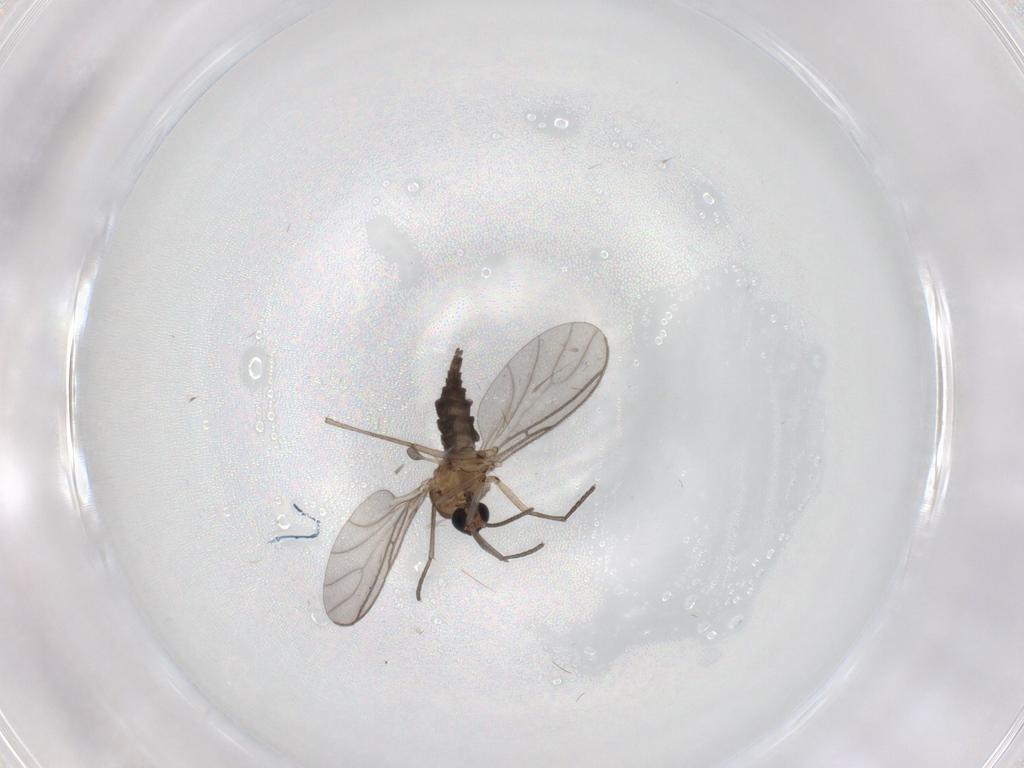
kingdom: Animalia
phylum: Arthropoda
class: Insecta
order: Diptera
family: Sciaridae
